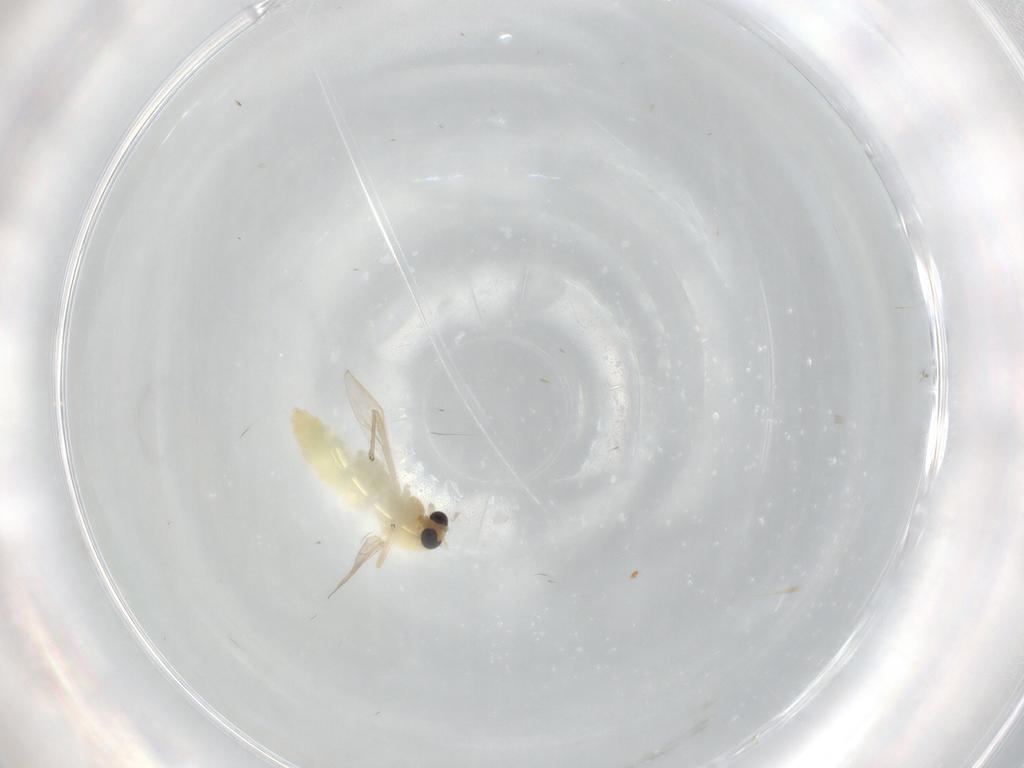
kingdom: Animalia
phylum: Arthropoda
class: Insecta
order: Diptera
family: Chironomidae
